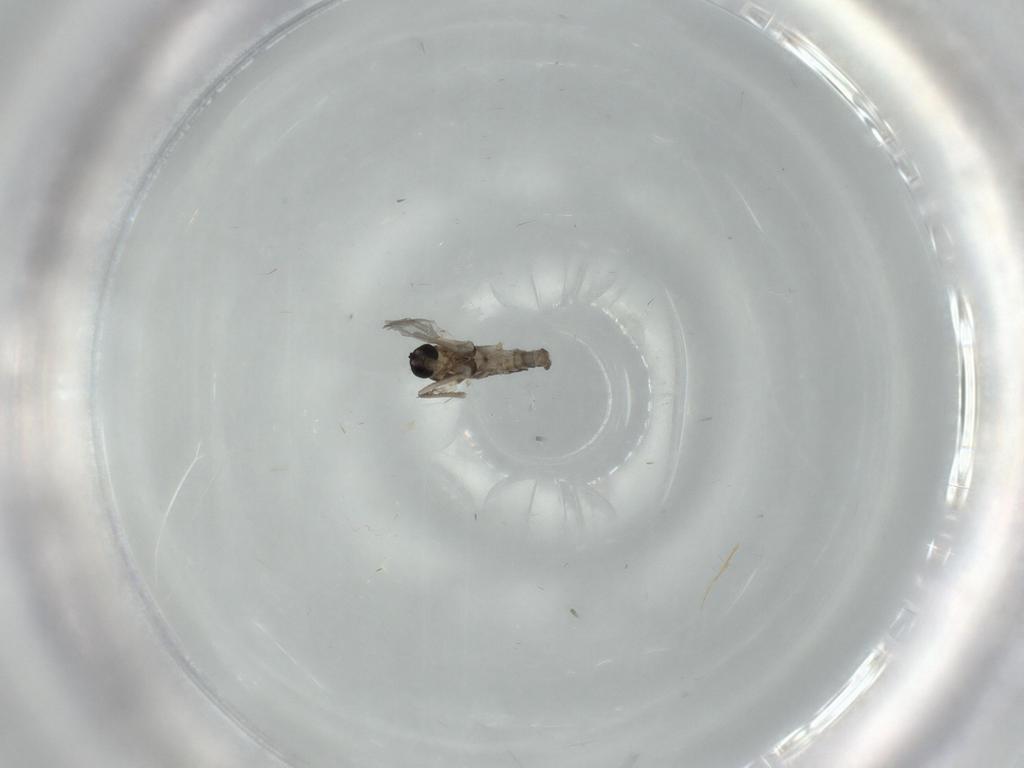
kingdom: Animalia
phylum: Arthropoda
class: Insecta
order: Diptera
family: Cecidomyiidae
